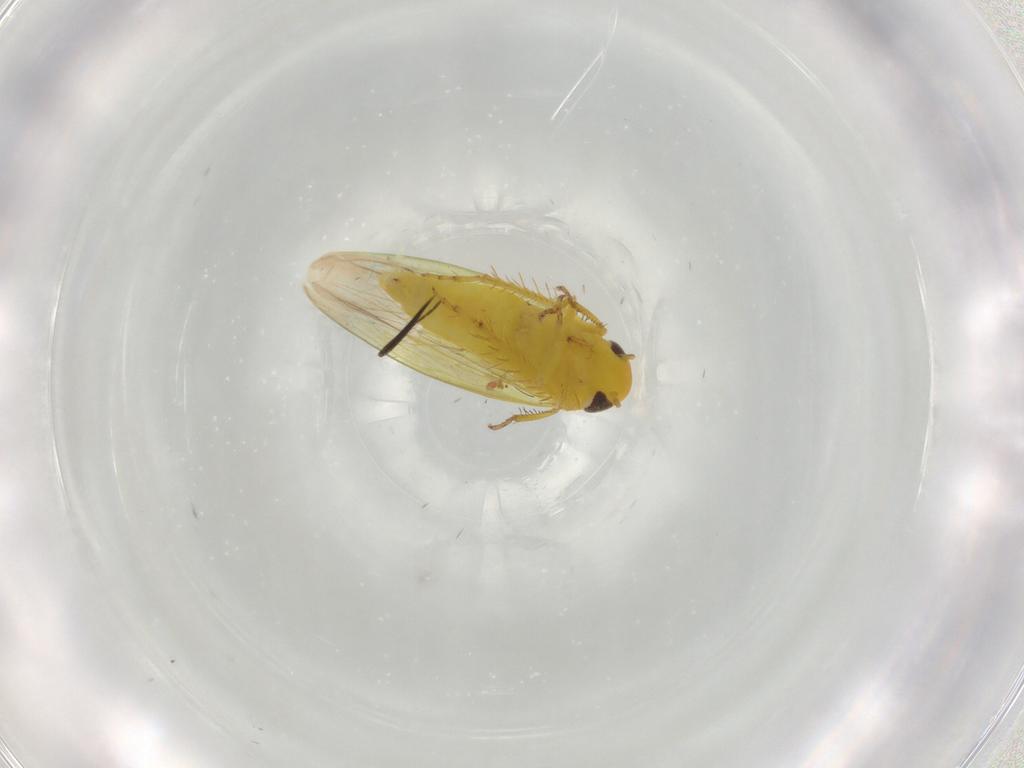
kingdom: Animalia
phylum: Arthropoda
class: Insecta
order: Hemiptera
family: Cicadellidae
